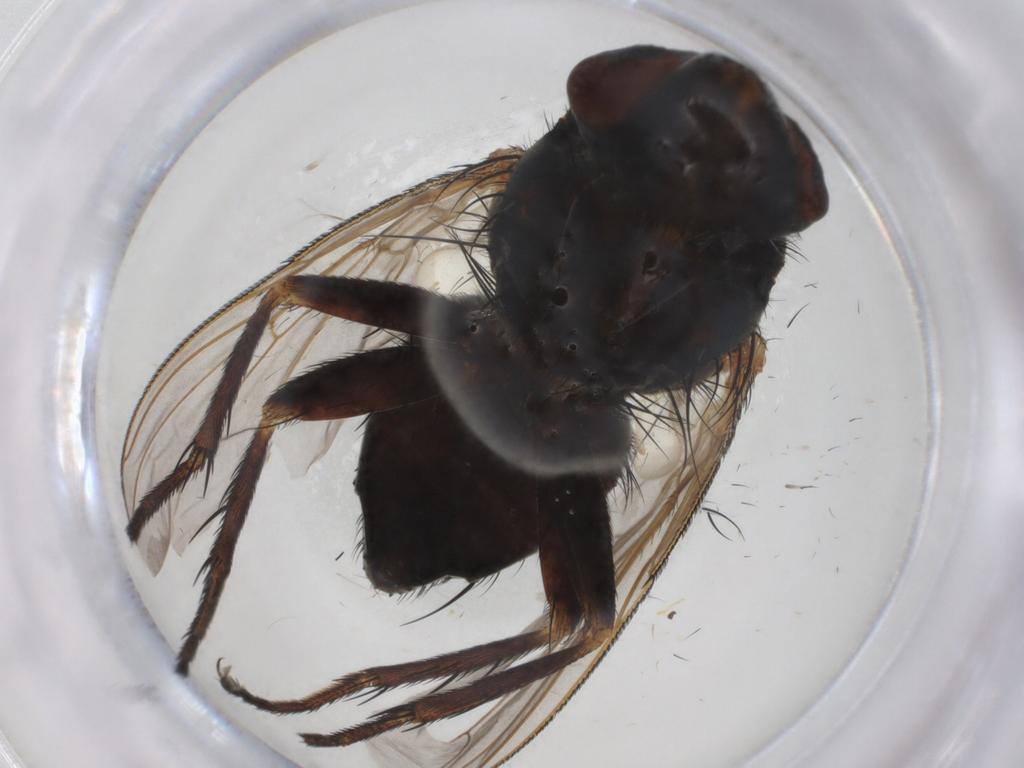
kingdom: Animalia
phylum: Arthropoda
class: Insecta
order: Diptera
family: Sarcophagidae
